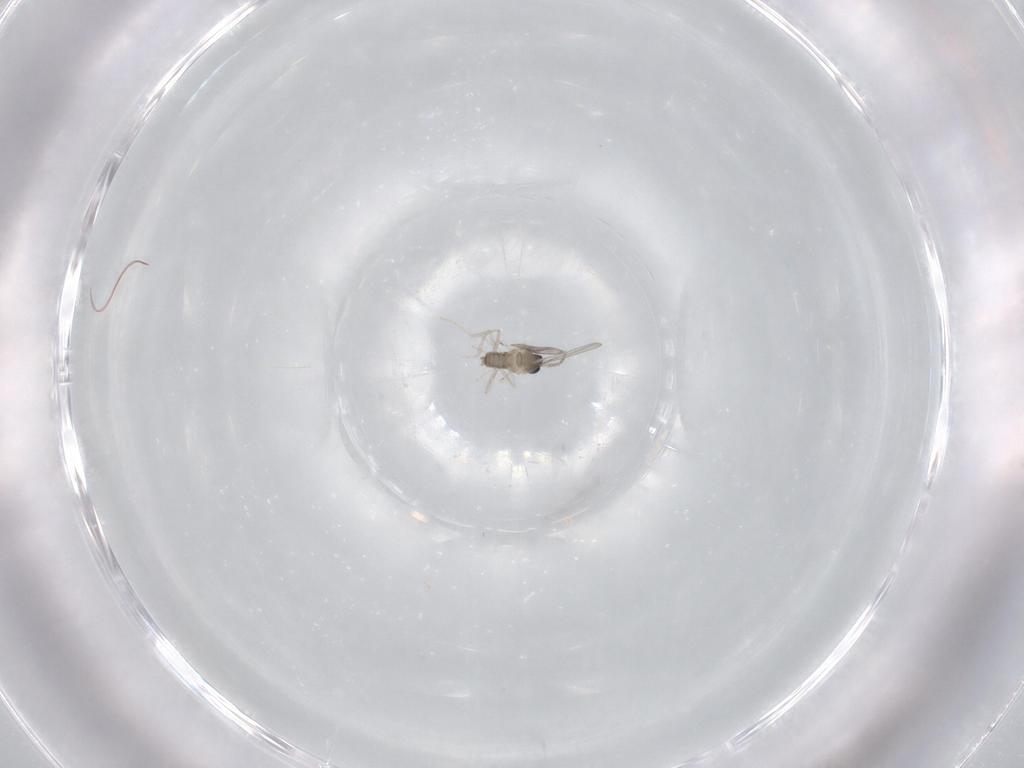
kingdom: Animalia
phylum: Arthropoda
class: Insecta
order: Diptera
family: Cecidomyiidae
